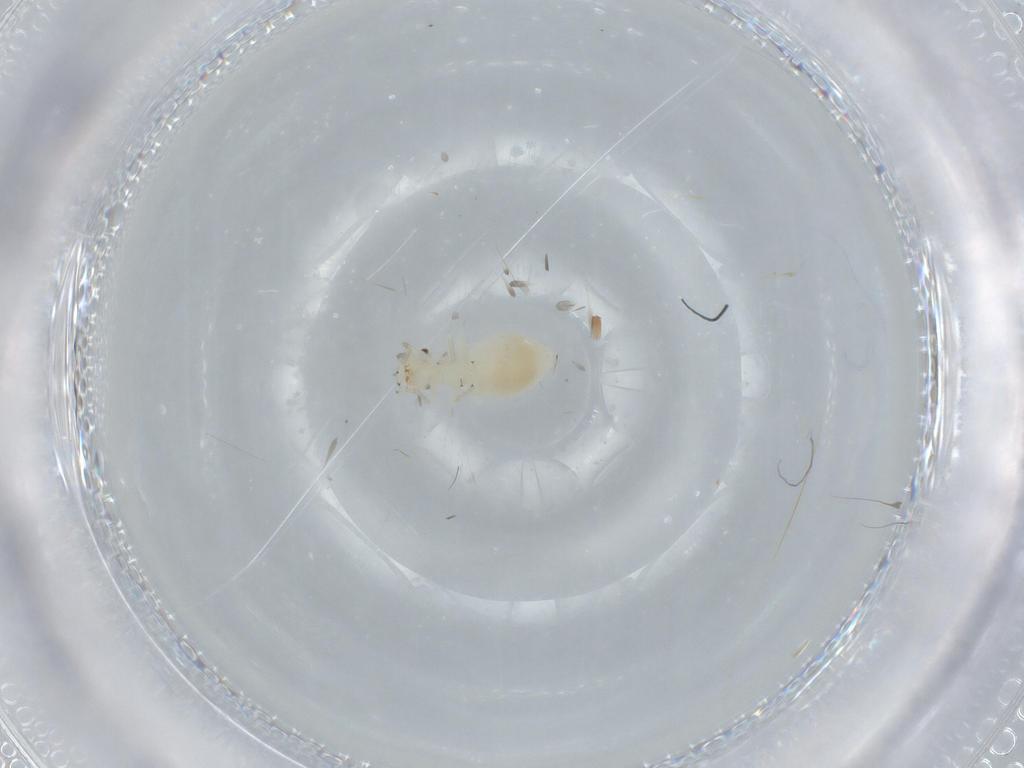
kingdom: Animalia
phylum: Arthropoda
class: Insecta
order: Psocodea
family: Caeciliusidae
